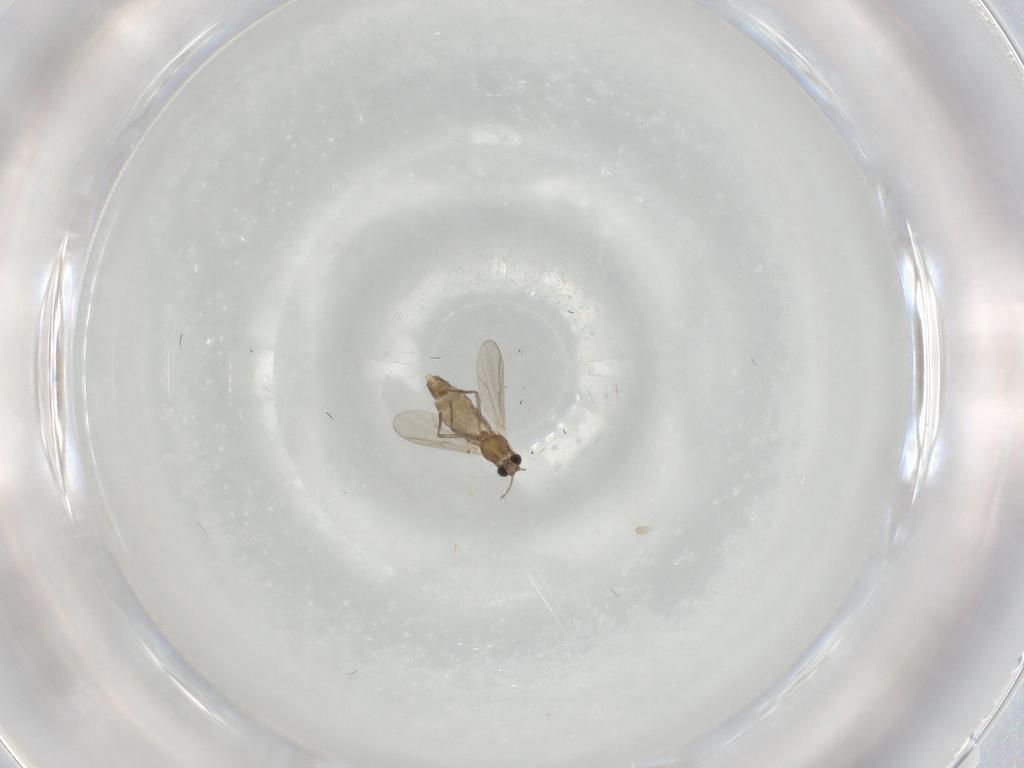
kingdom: Animalia
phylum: Arthropoda
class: Insecta
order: Diptera
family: Chironomidae
